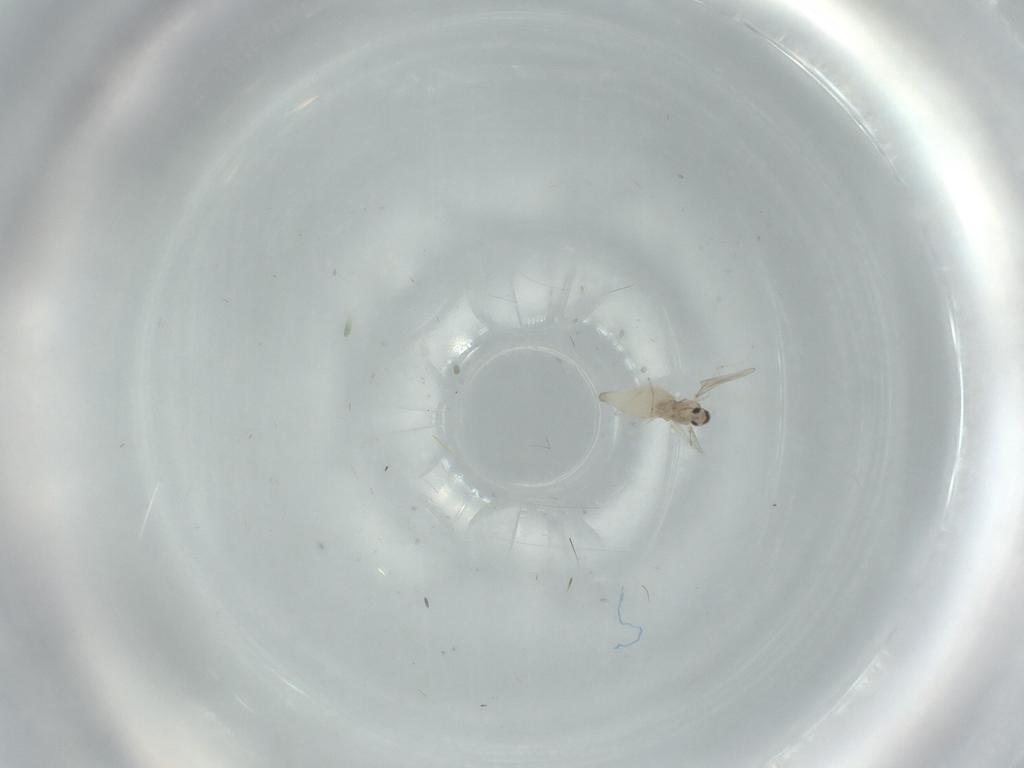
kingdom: Animalia
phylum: Arthropoda
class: Insecta
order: Diptera
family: Cecidomyiidae
